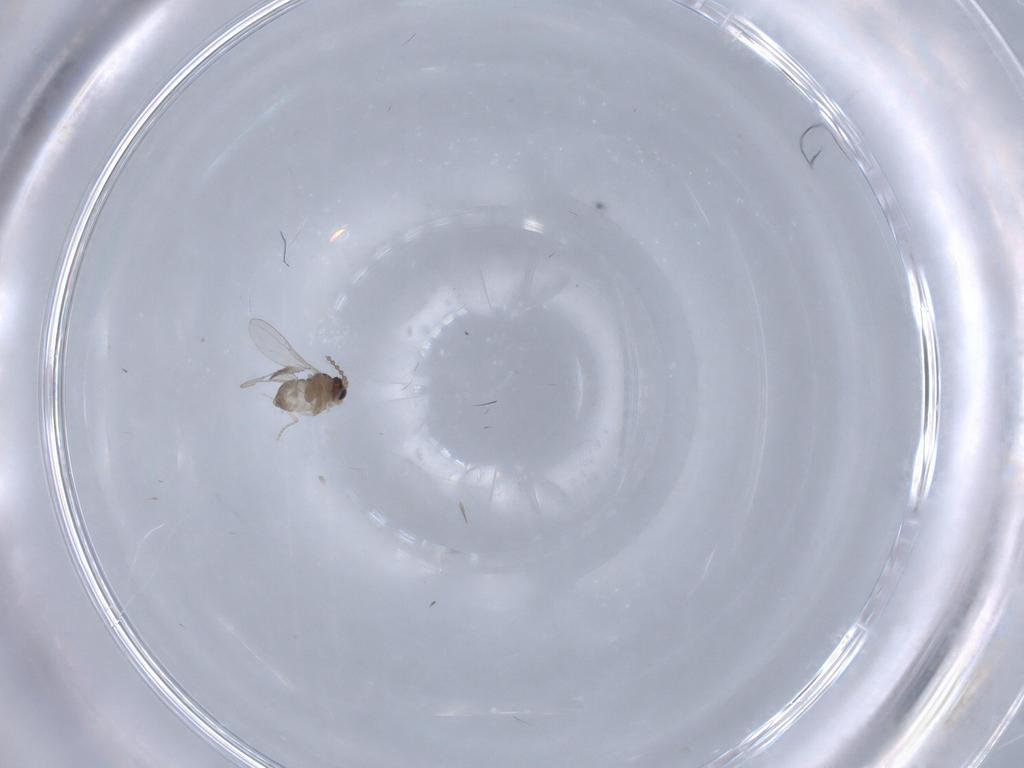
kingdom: Animalia
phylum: Arthropoda
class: Insecta
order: Diptera
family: Cecidomyiidae
